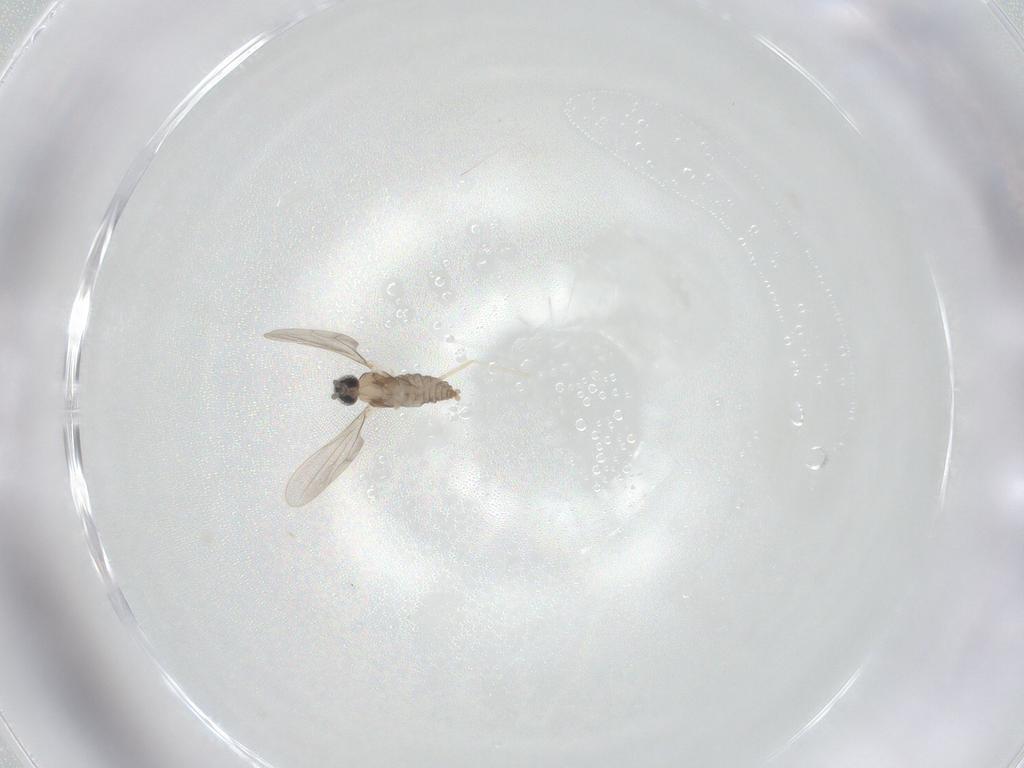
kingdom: Animalia
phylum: Arthropoda
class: Insecta
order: Diptera
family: Cecidomyiidae
